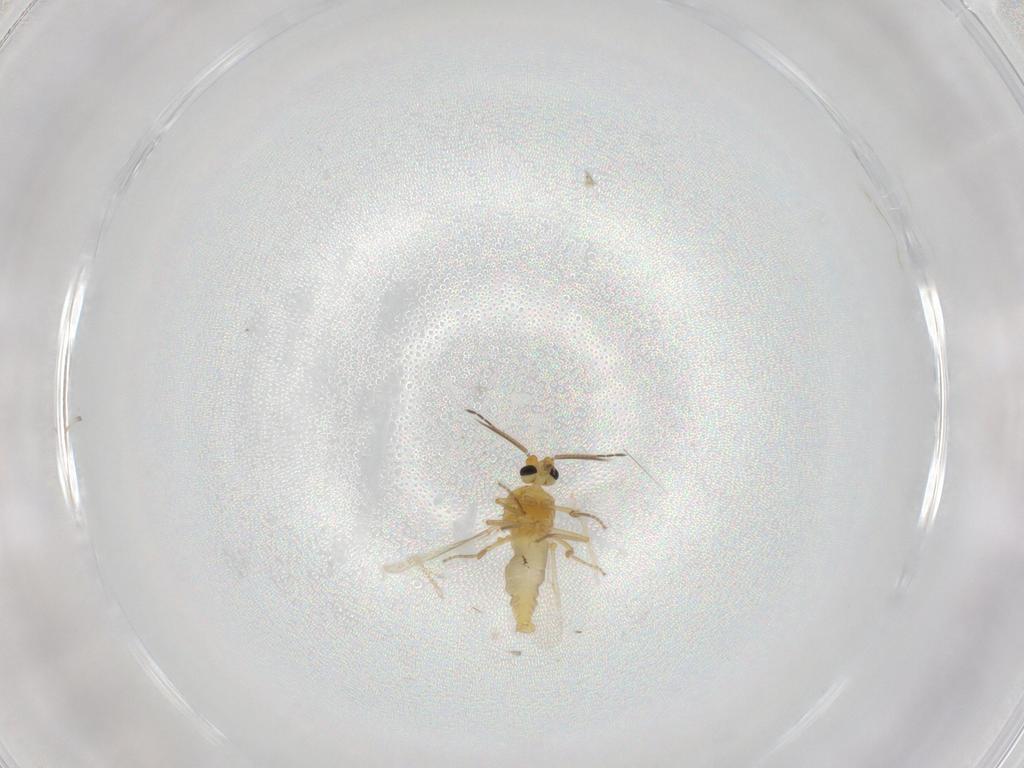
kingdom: Animalia
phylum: Arthropoda
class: Insecta
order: Diptera
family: Ceratopogonidae
